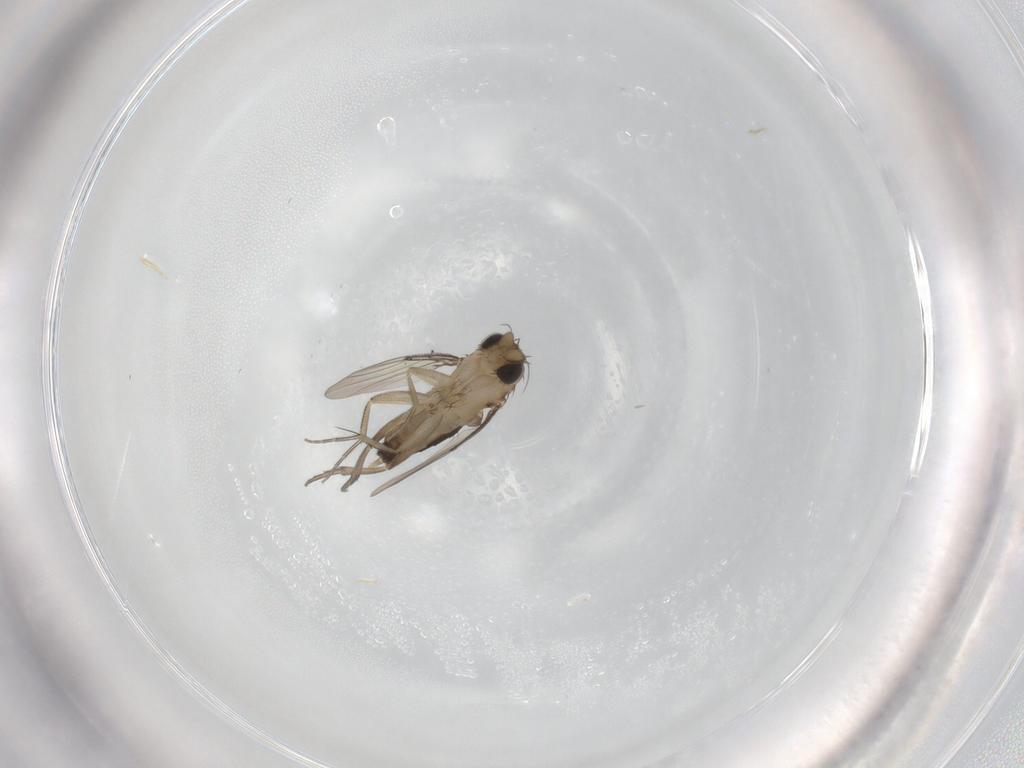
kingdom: Animalia
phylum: Arthropoda
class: Insecta
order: Diptera
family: Phoridae
